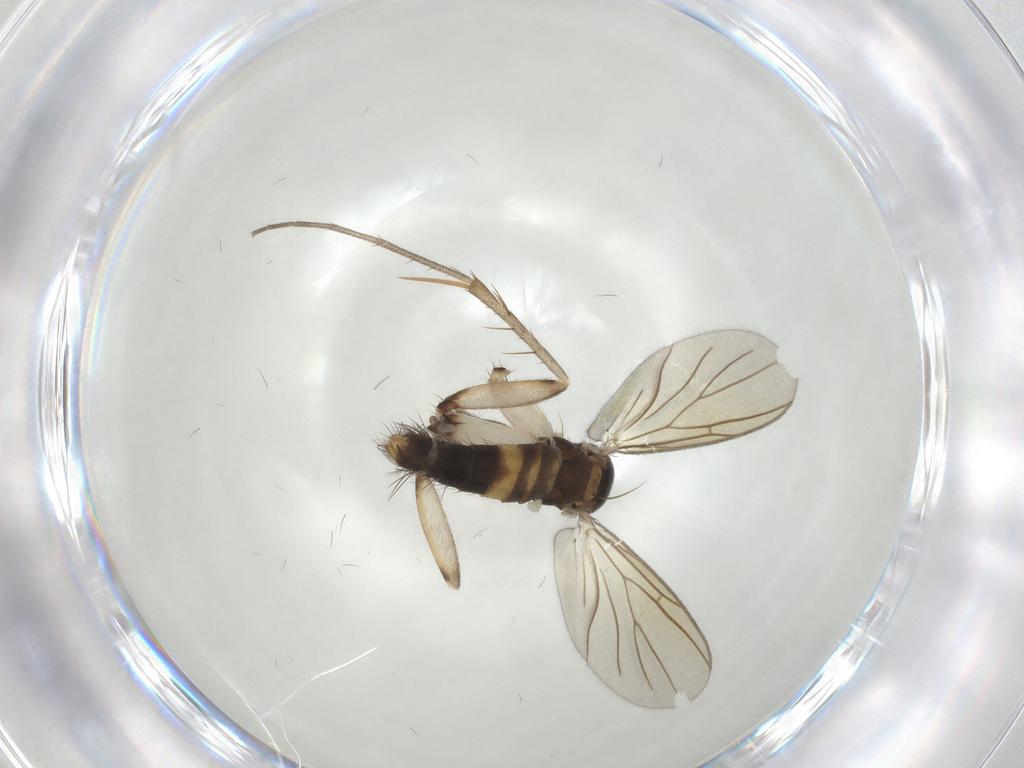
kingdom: Animalia
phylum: Arthropoda
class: Insecta
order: Diptera
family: Mycetophilidae
